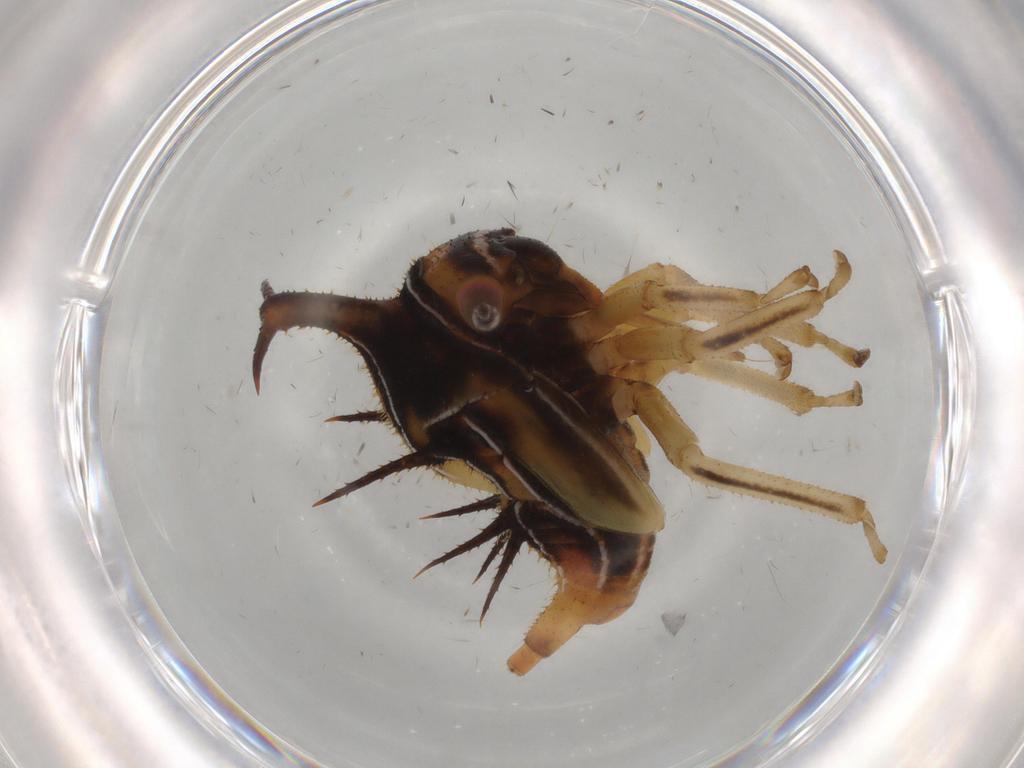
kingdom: Animalia
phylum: Arthropoda
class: Insecta
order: Hemiptera
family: Membracidae
